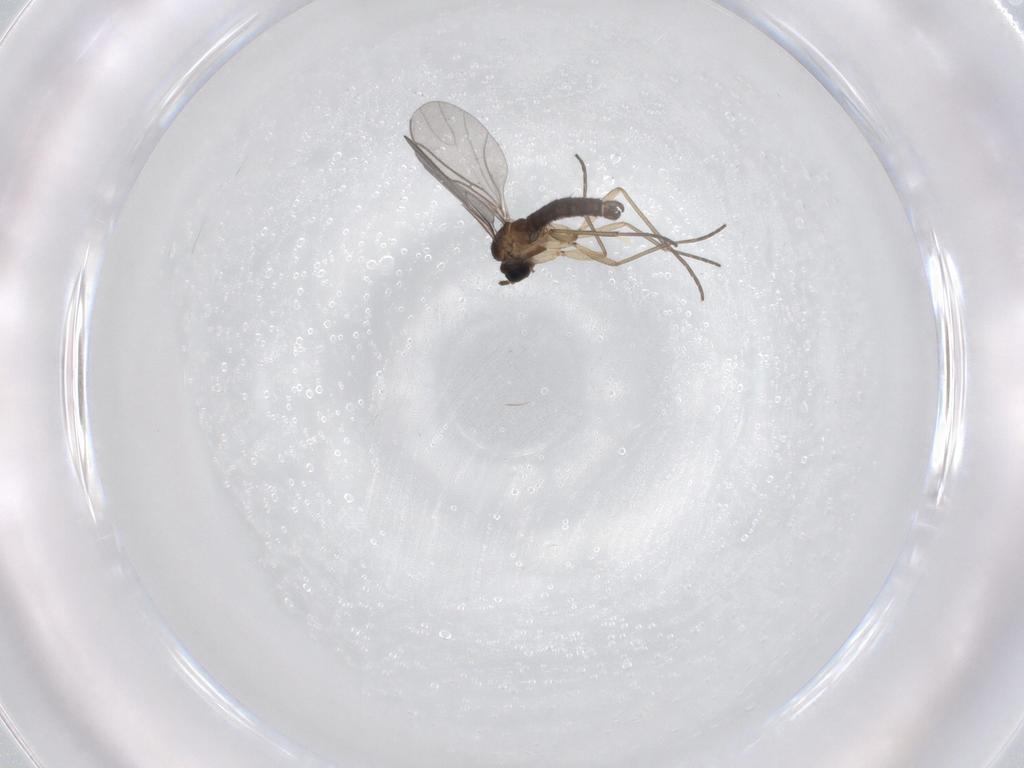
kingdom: Animalia
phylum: Arthropoda
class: Insecta
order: Diptera
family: Sciaridae
